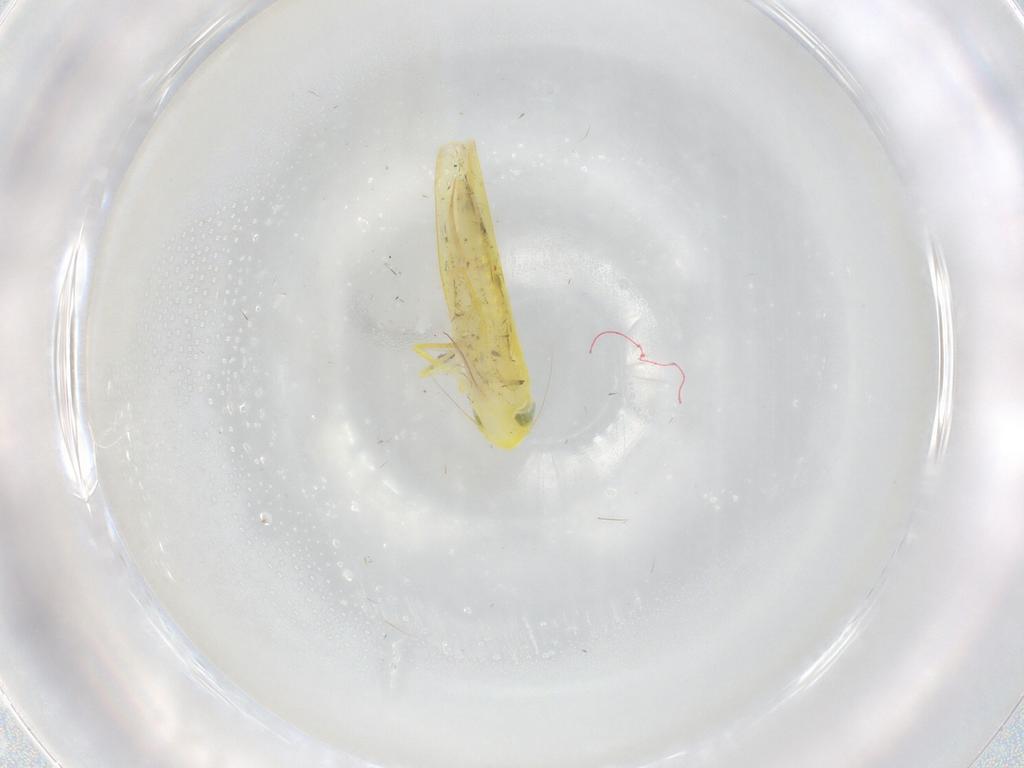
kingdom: Animalia
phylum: Arthropoda
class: Insecta
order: Hemiptera
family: Cicadellidae
